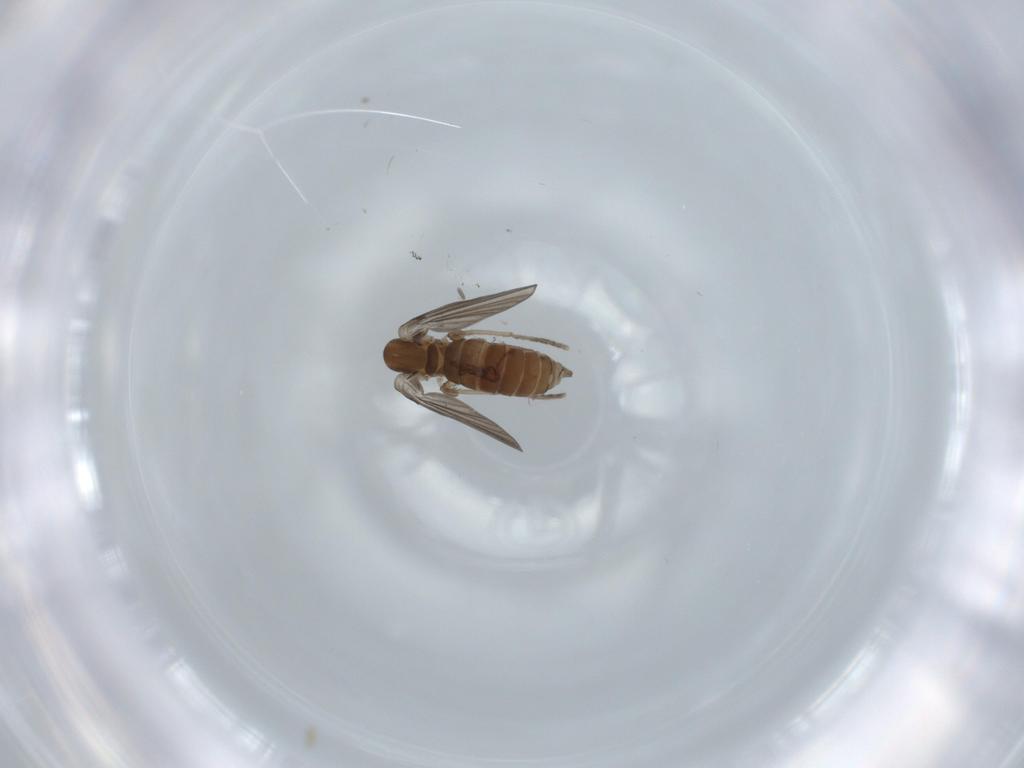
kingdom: Animalia
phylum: Arthropoda
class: Insecta
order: Diptera
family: Psychodidae
